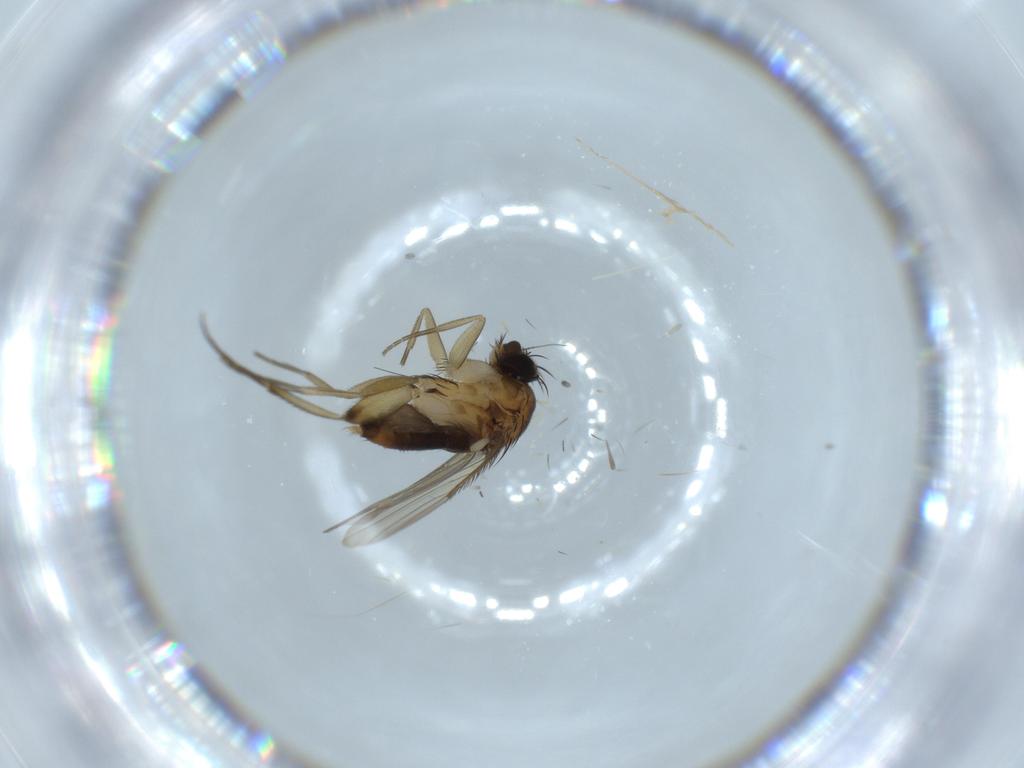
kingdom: Animalia
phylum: Arthropoda
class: Insecta
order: Diptera
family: Phoridae
